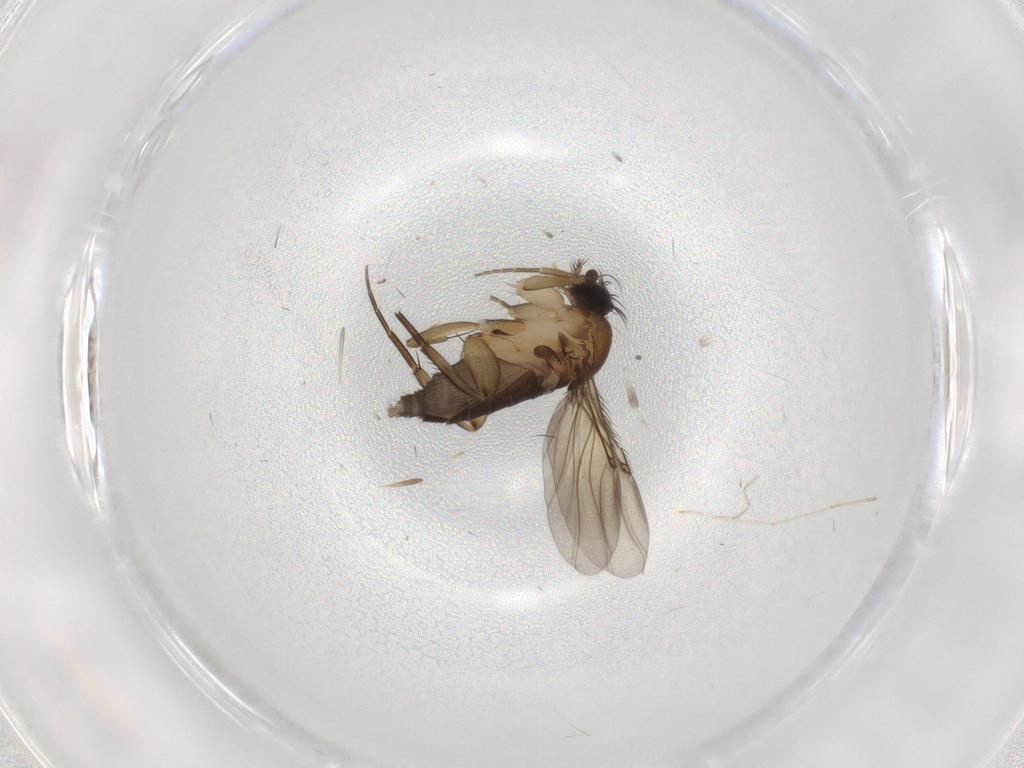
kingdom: Animalia
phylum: Arthropoda
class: Insecta
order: Diptera
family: Phoridae
